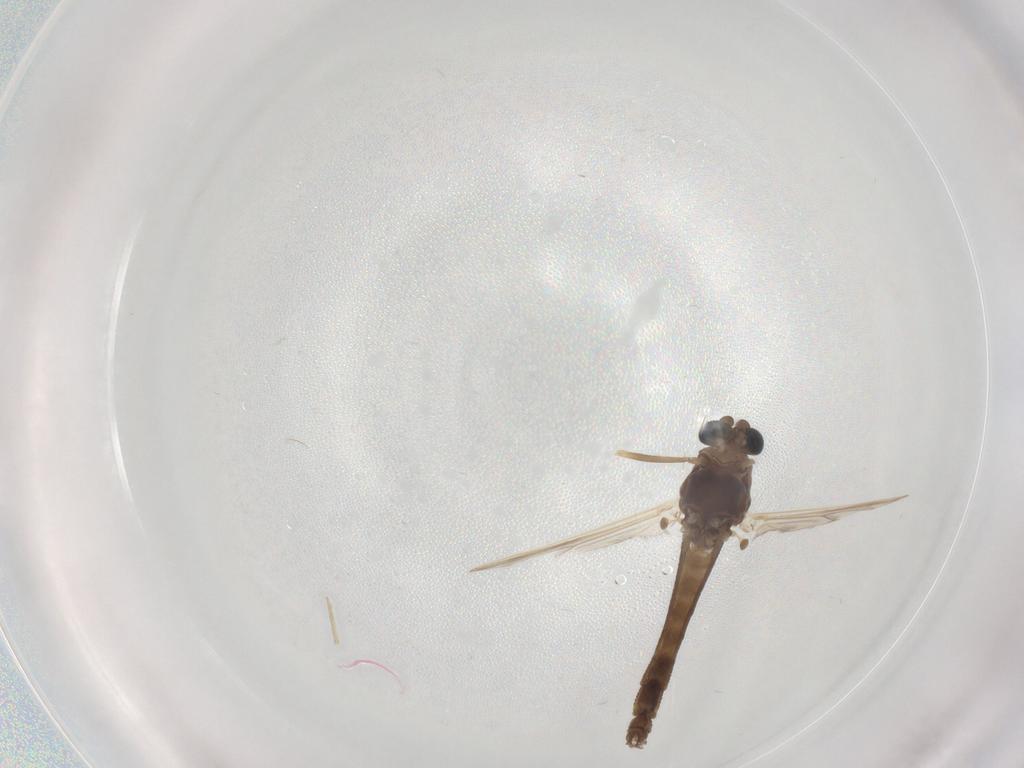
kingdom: Animalia
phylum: Arthropoda
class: Insecta
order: Diptera
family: Chironomidae
